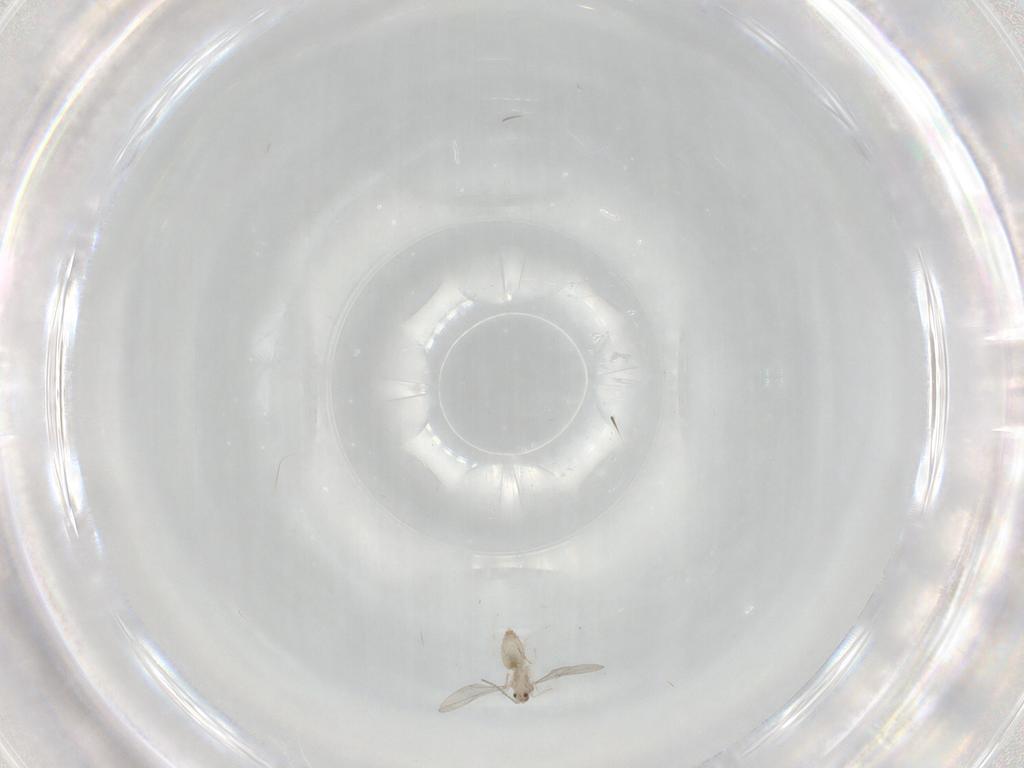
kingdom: Animalia
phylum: Arthropoda
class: Insecta
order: Diptera
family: Cecidomyiidae
